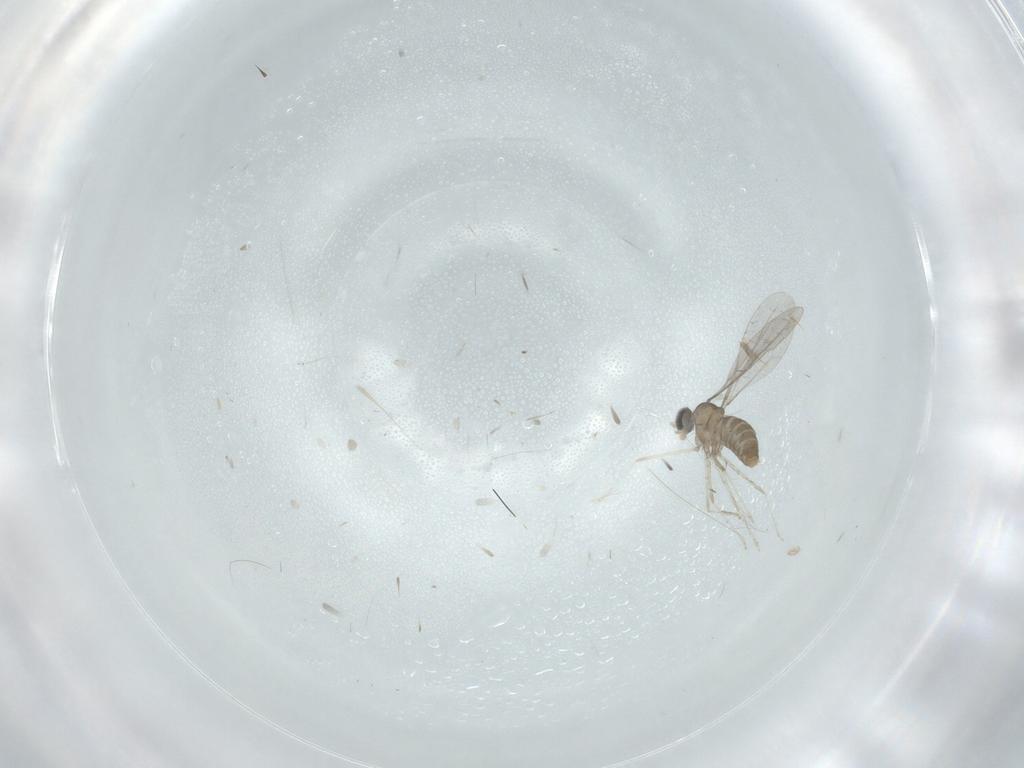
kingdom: Animalia
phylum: Arthropoda
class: Insecta
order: Diptera
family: Cecidomyiidae
